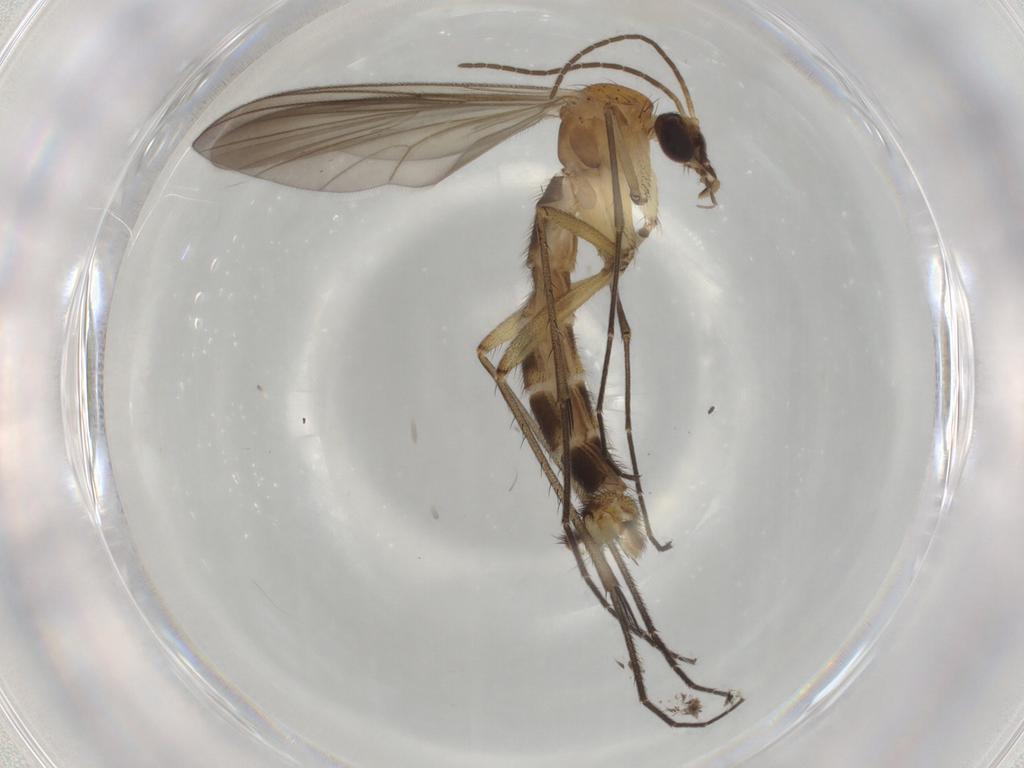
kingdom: Animalia
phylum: Arthropoda
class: Insecta
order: Diptera
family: Mycetophilidae
